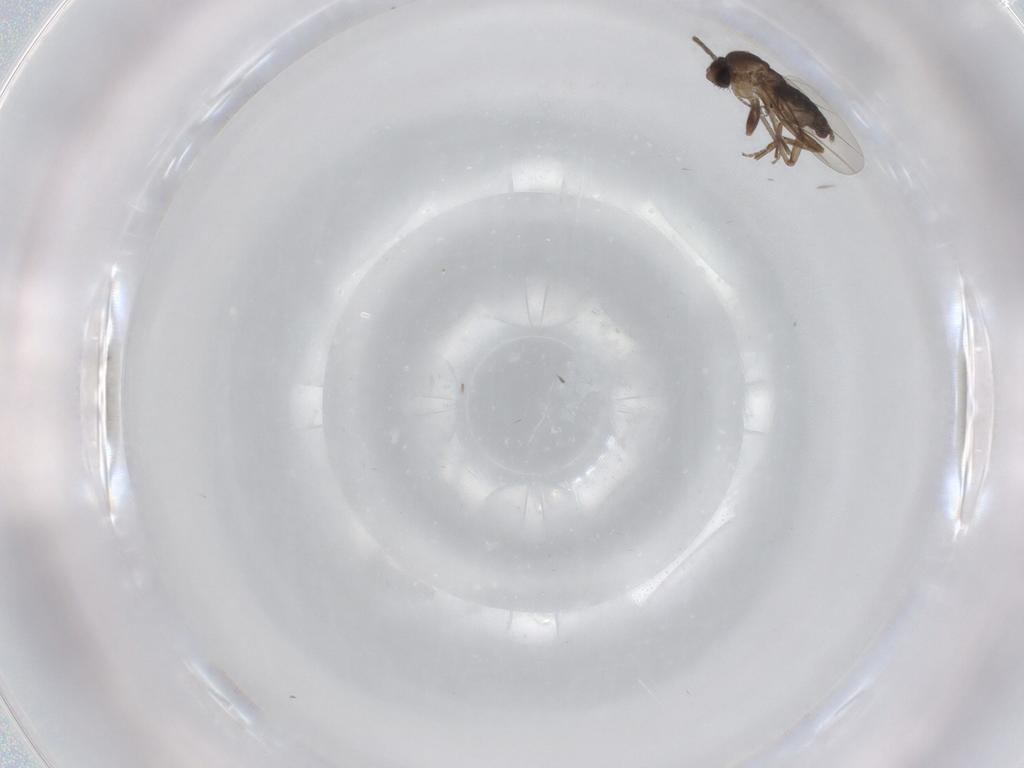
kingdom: Animalia
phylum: Arthropoda
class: Insecta
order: Diptera
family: Psychodidae
